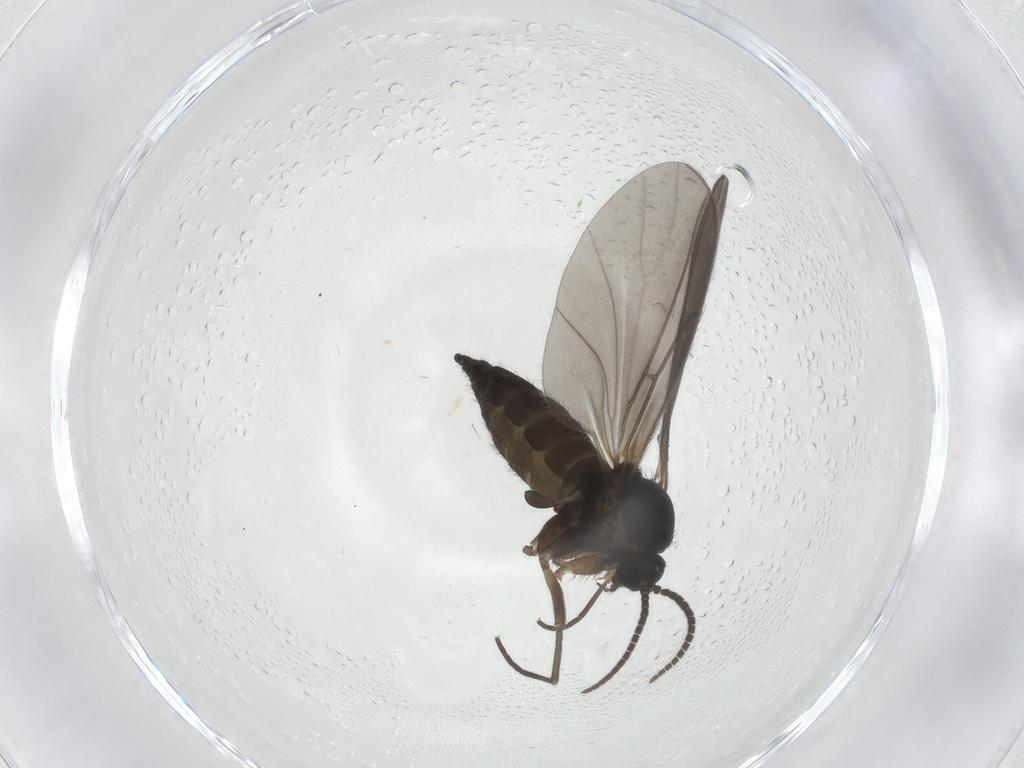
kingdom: Animalia
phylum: Arthropoda
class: Insecta
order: Diptera
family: Sciaridae
